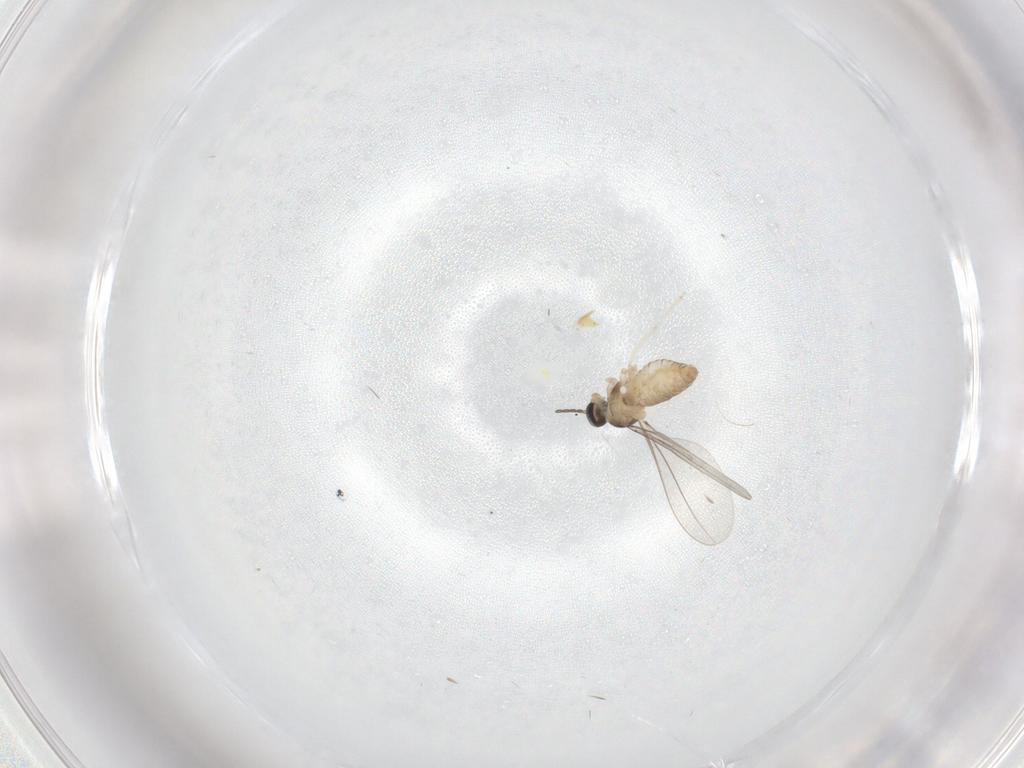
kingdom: Animalia
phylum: Arthropoda
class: Insecta
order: Diptera
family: Cecidomyiidae
